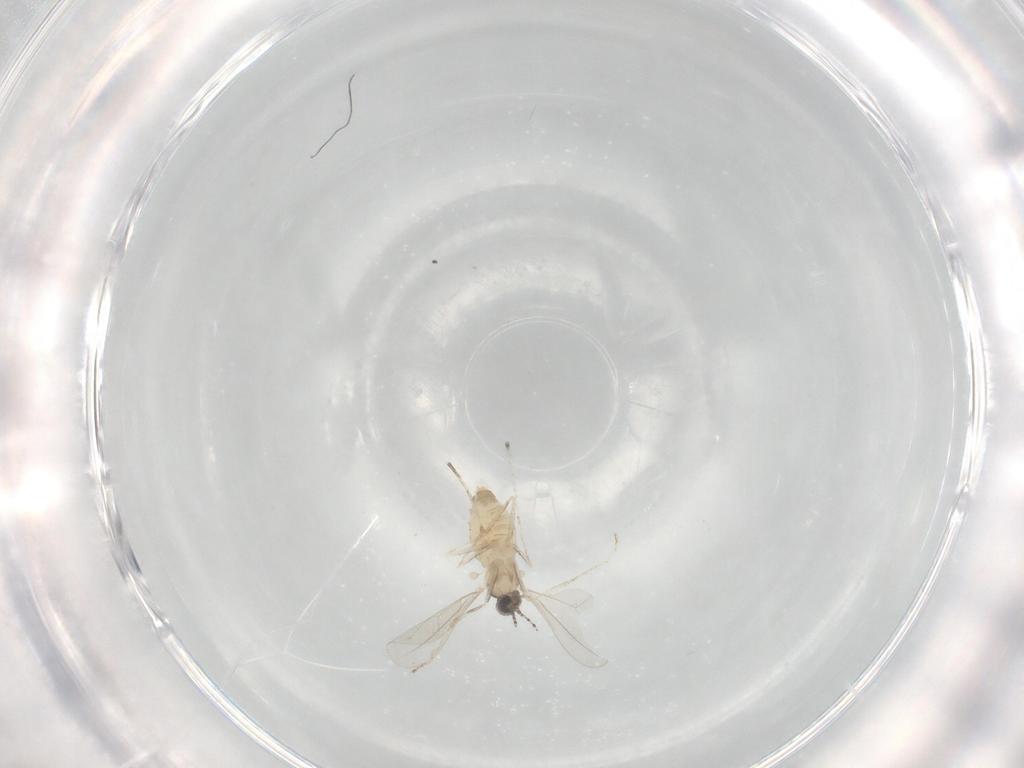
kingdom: Animalia
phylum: Arthropoda
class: Insecta
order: Diptera
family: Cecidomyiidae
